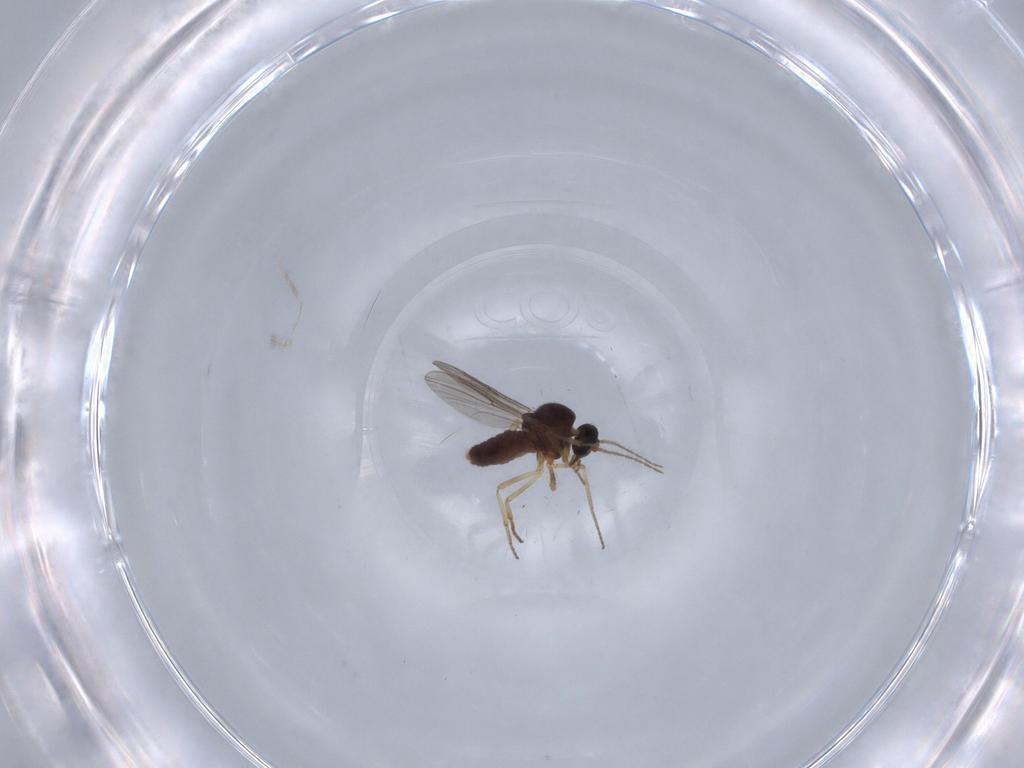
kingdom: Animalia
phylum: Arthropoda
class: Insecta
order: Diptera
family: Ceratopogonidae
